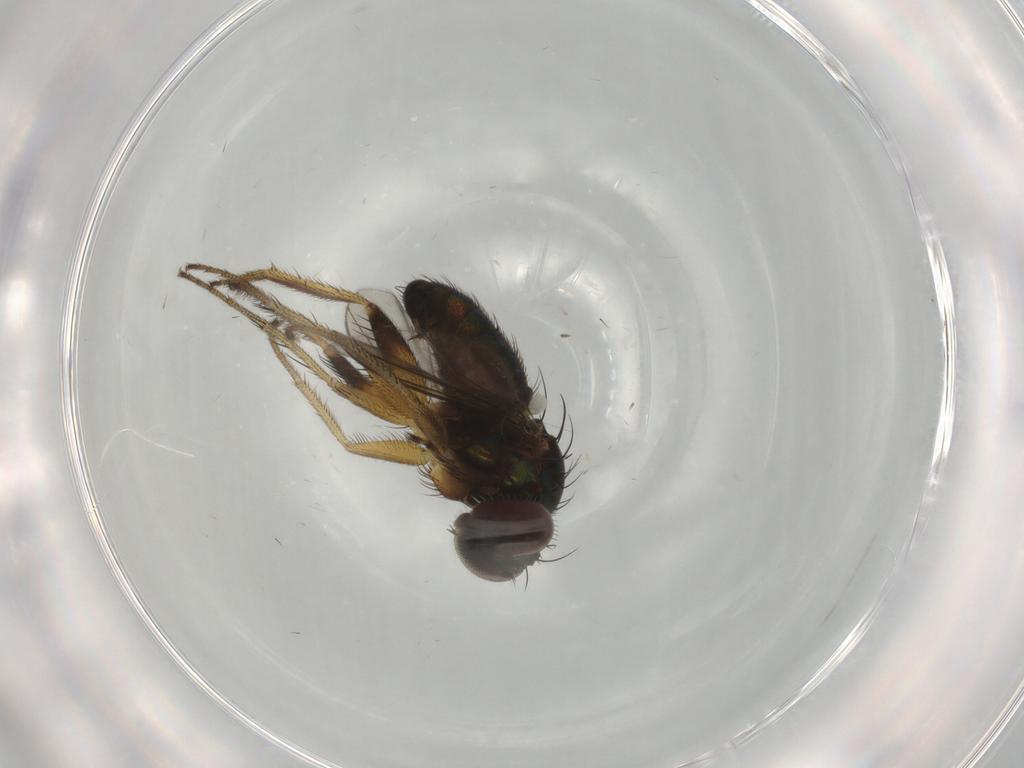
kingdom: Animalia
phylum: Arthropoda
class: Insecta
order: Diptera
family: Dolichopodidae
